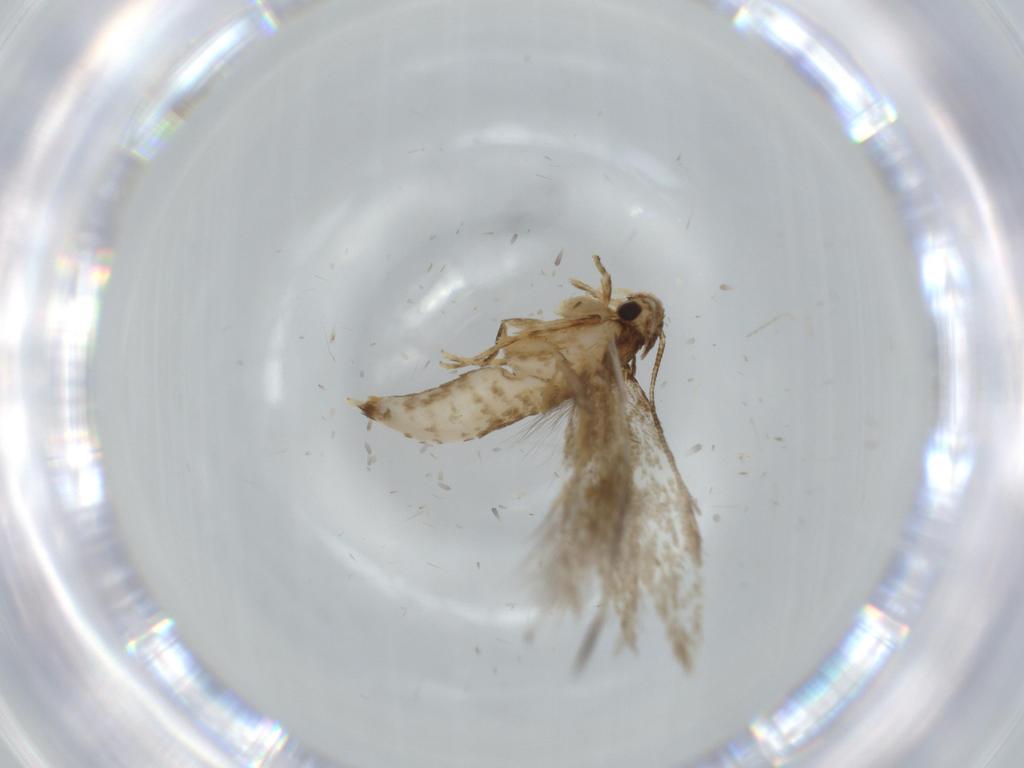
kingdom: Animalia
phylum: Arthropoda
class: Insecta
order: Lepidoptera
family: Tineidae
